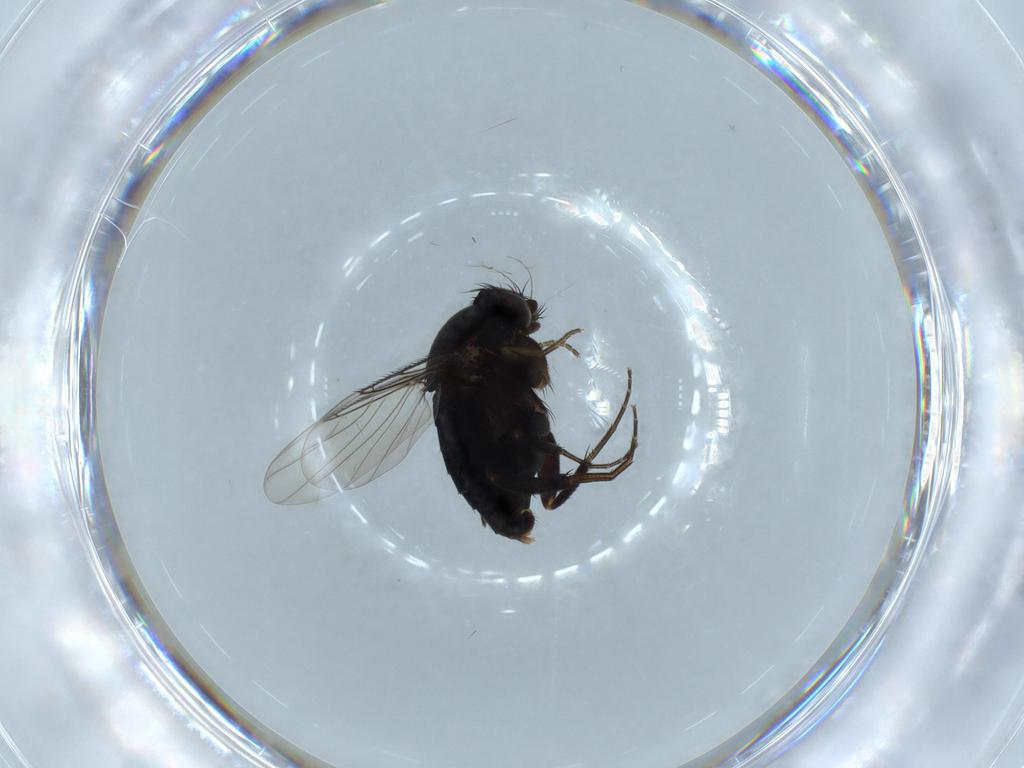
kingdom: Animalia
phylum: Arthropoda
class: Insecta
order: Diptera
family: Phoridae
